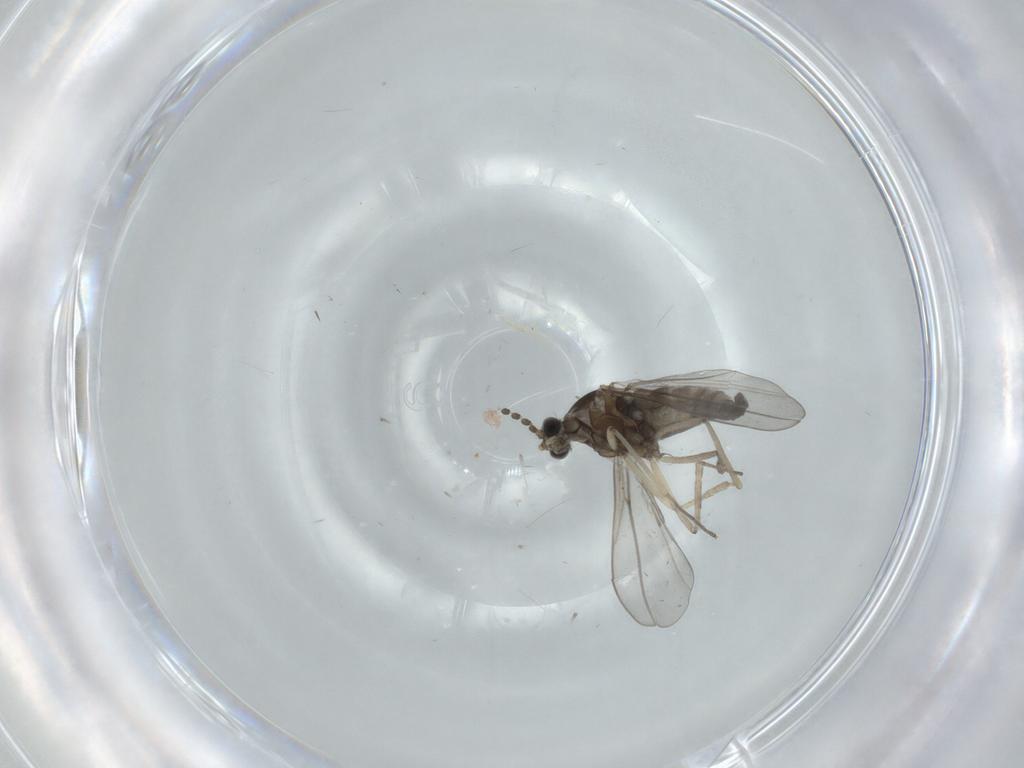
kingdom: Animalia
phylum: Arthropoda
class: Insecta
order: Diptera
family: Cecidomyiidae
